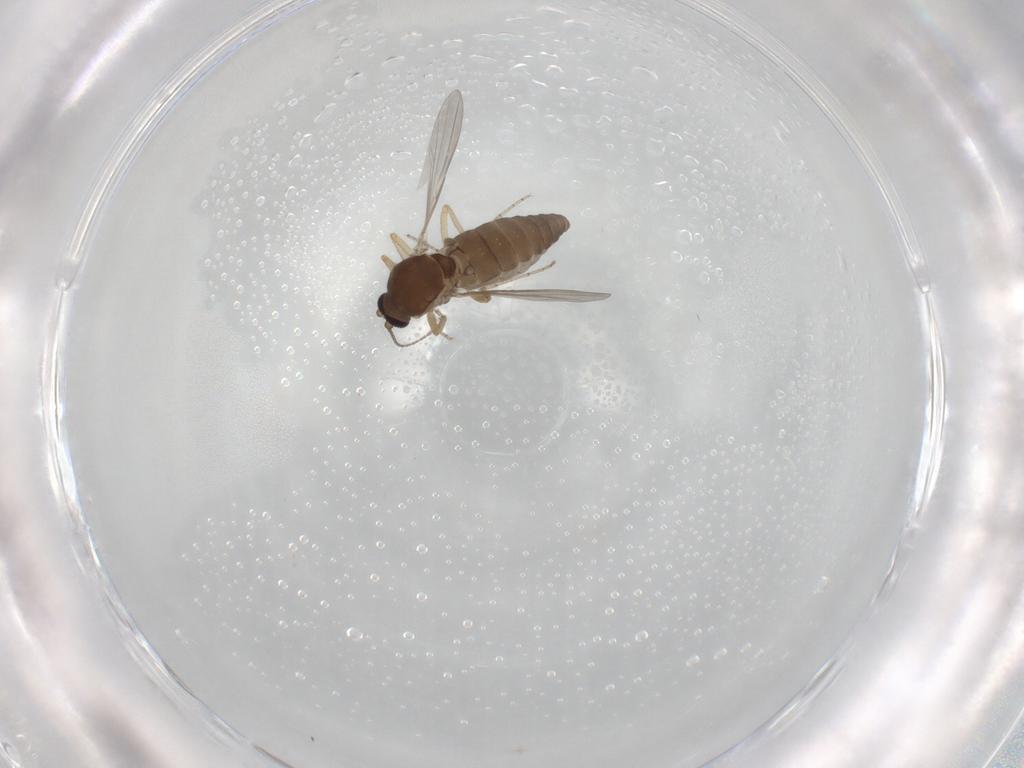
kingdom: Animalia
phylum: Arthropoda
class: Insecta
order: Diptera
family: Ceratopogonidae
